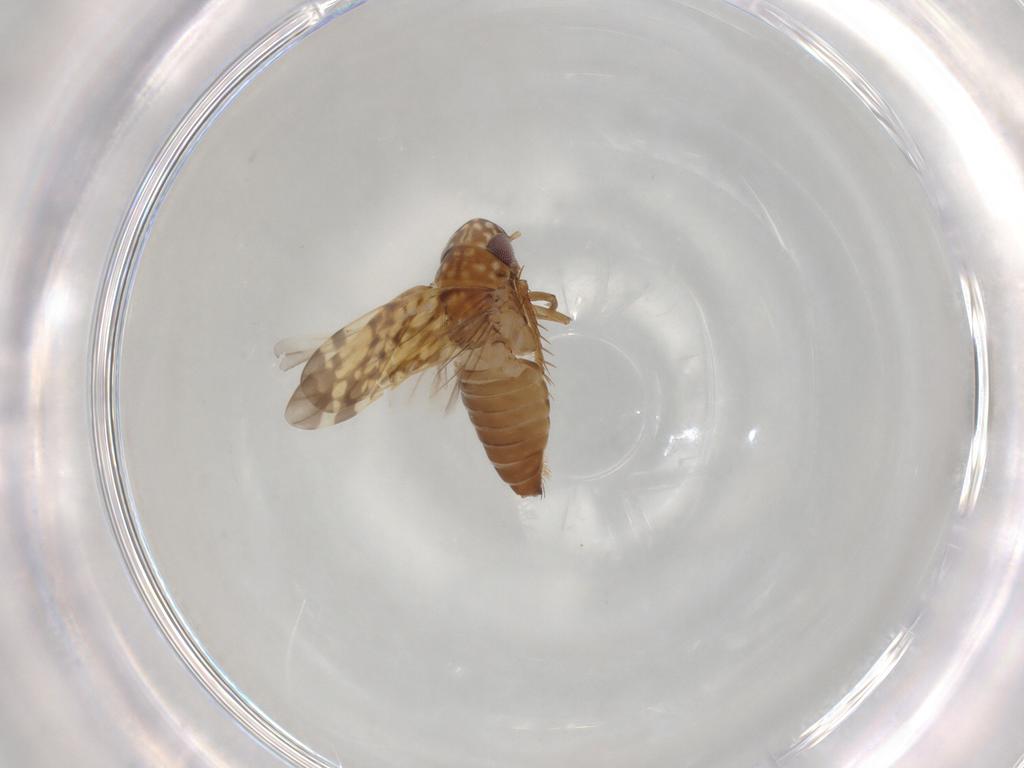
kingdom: Animalia
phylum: Arthropoda
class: Insecta
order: Hemiptera
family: Cicadellidae
